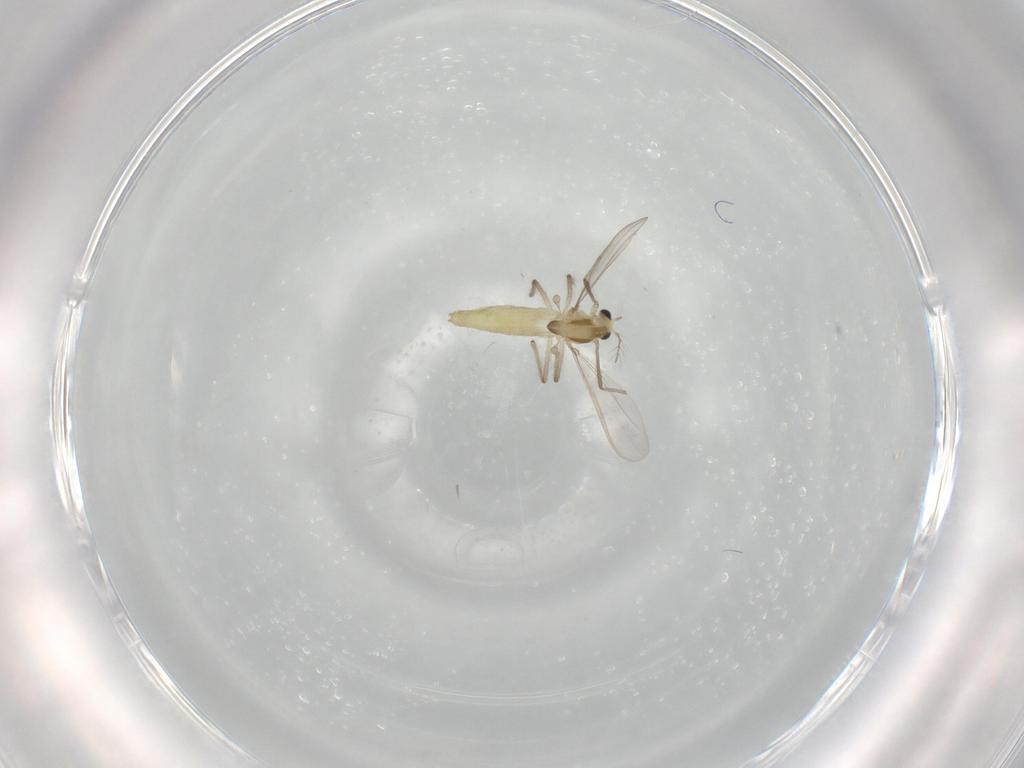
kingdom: Animalia
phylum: Arthropoda
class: Insecta
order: Diptera
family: Chironomidae
